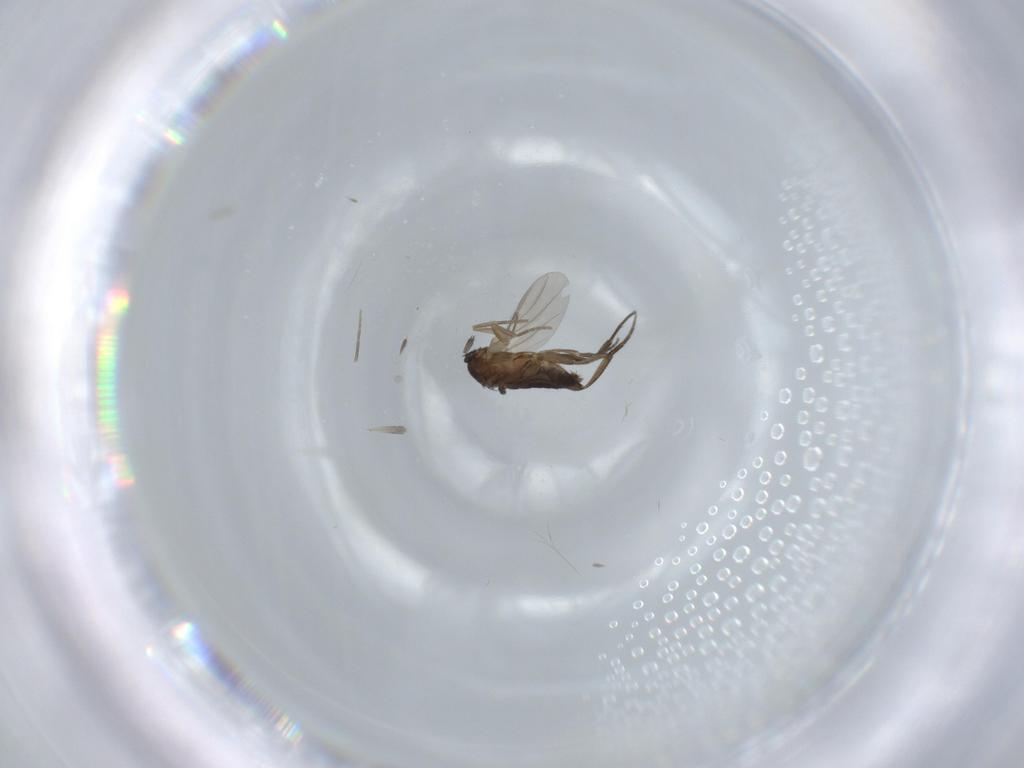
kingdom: Animalia
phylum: Arthropoda
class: Insecta
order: Diptera
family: Phoridae
